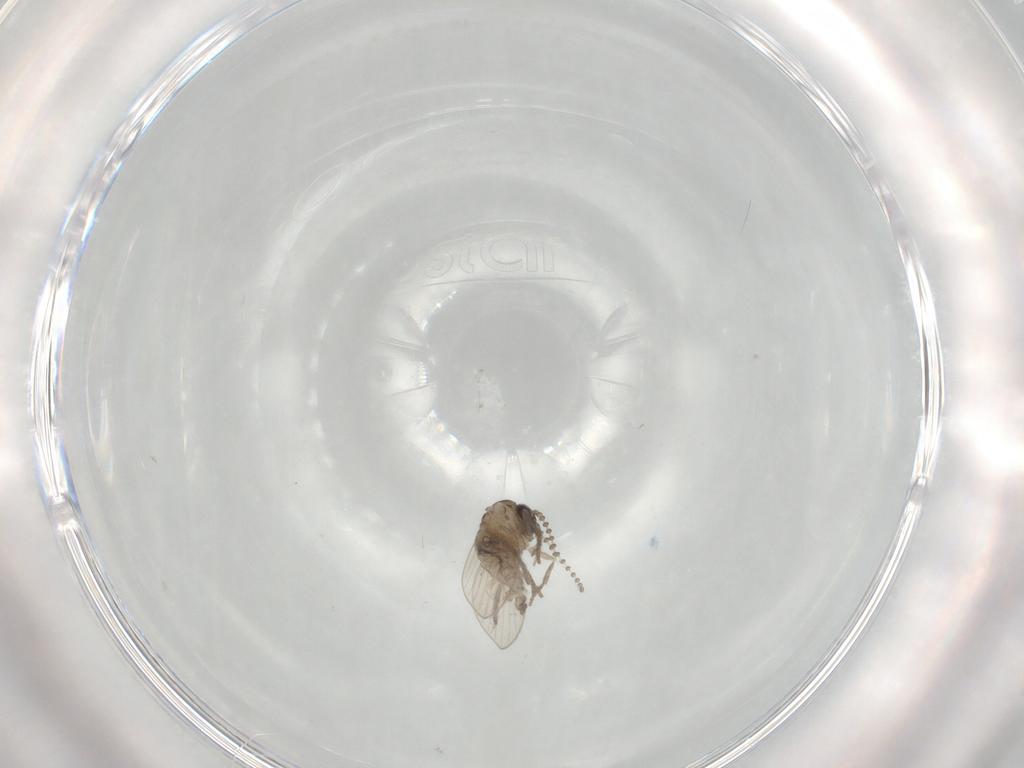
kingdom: Animalia
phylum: Arthropoda
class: Insecta
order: Diptera
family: Psychodidae
